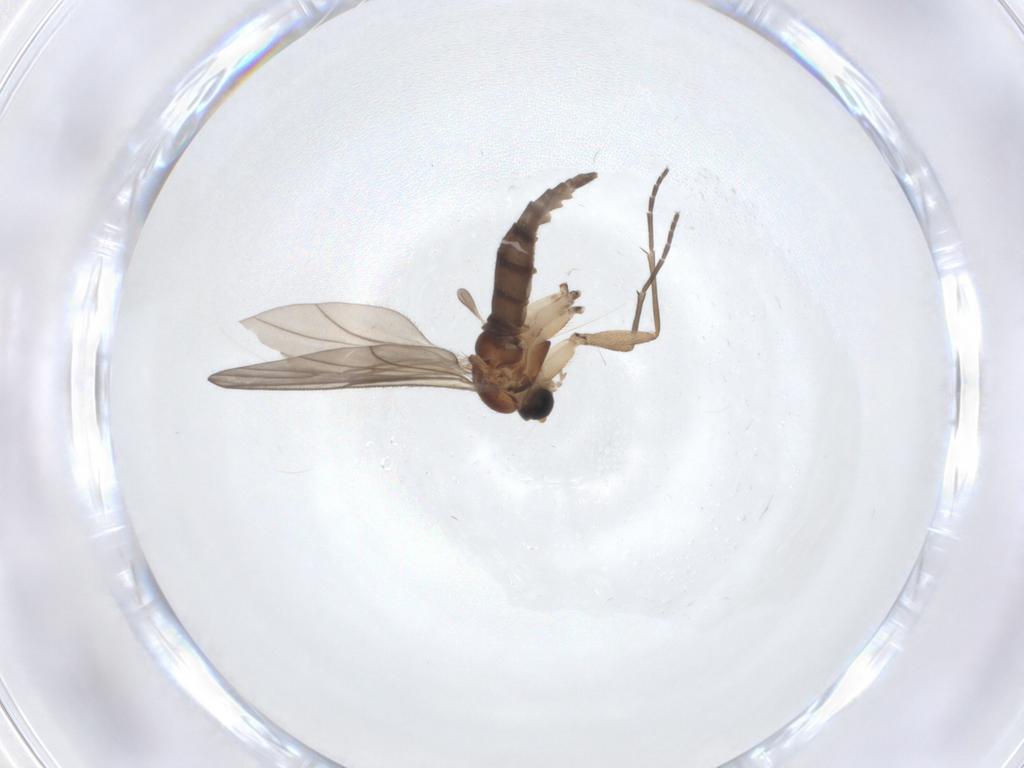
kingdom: Animalia
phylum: Arthropoda
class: Insecta
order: Diptera
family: Sciaridae
